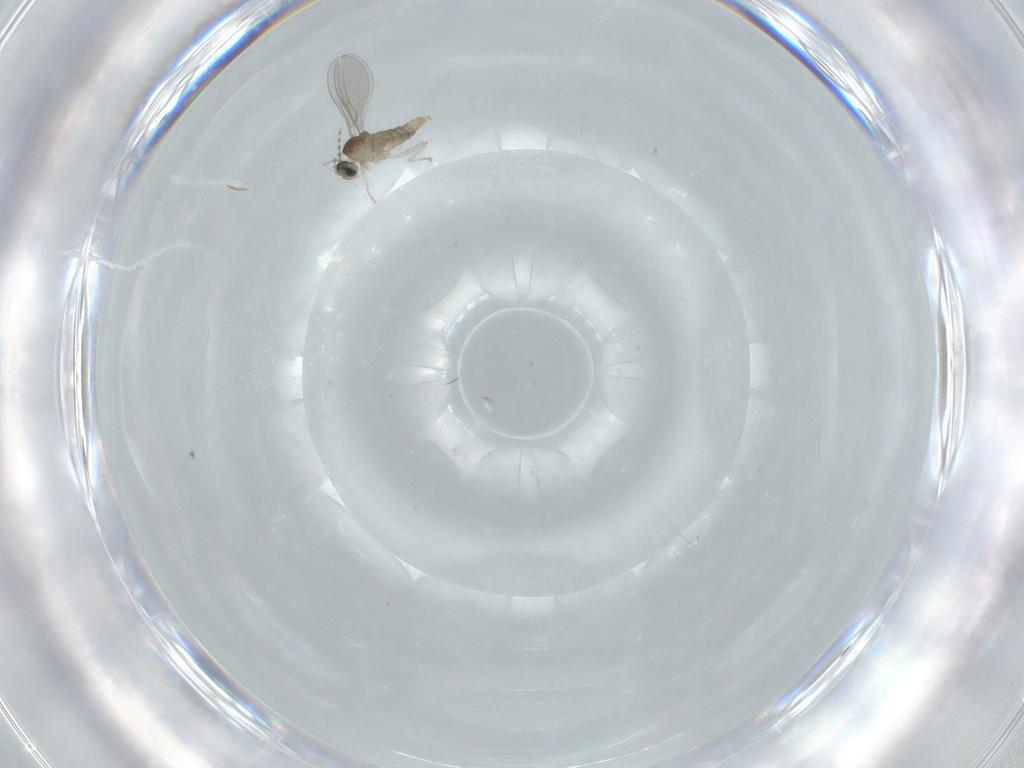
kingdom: Animalia
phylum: Arthropoda
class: Insecta
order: Diptera
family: Cecidomyiidae
